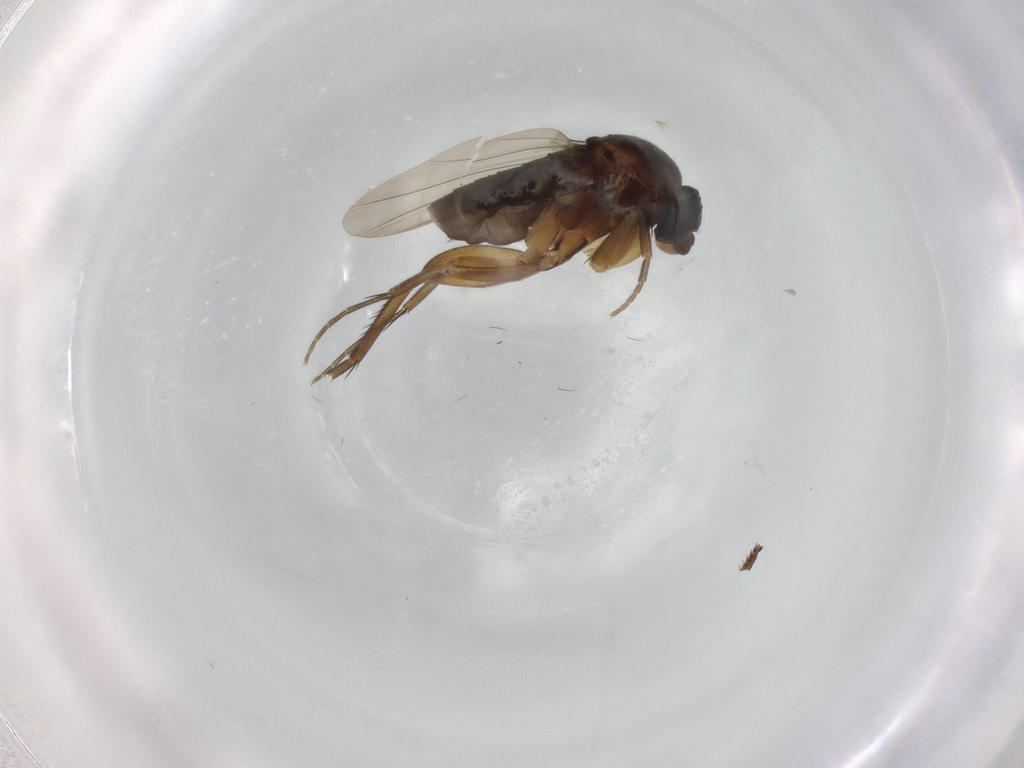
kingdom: Animalia
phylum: Arthropoda
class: Insecta
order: Diptera
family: Phoridae
